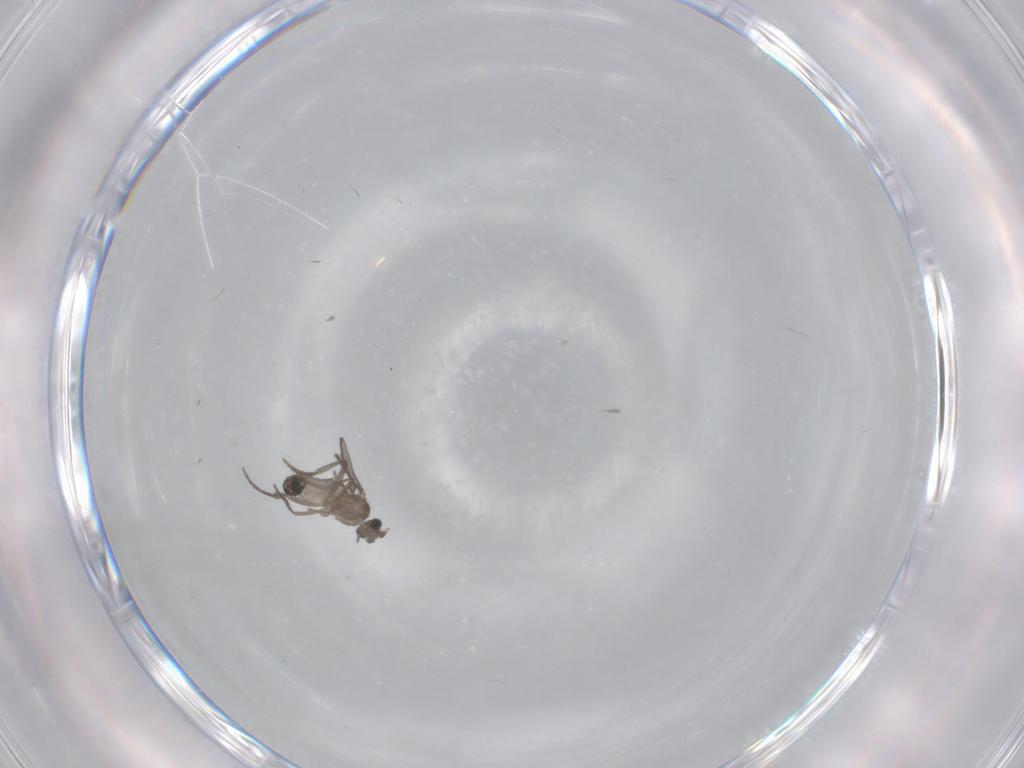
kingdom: Animalia
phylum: Arthropoda
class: Insecta
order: Diptera
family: Phoridae
